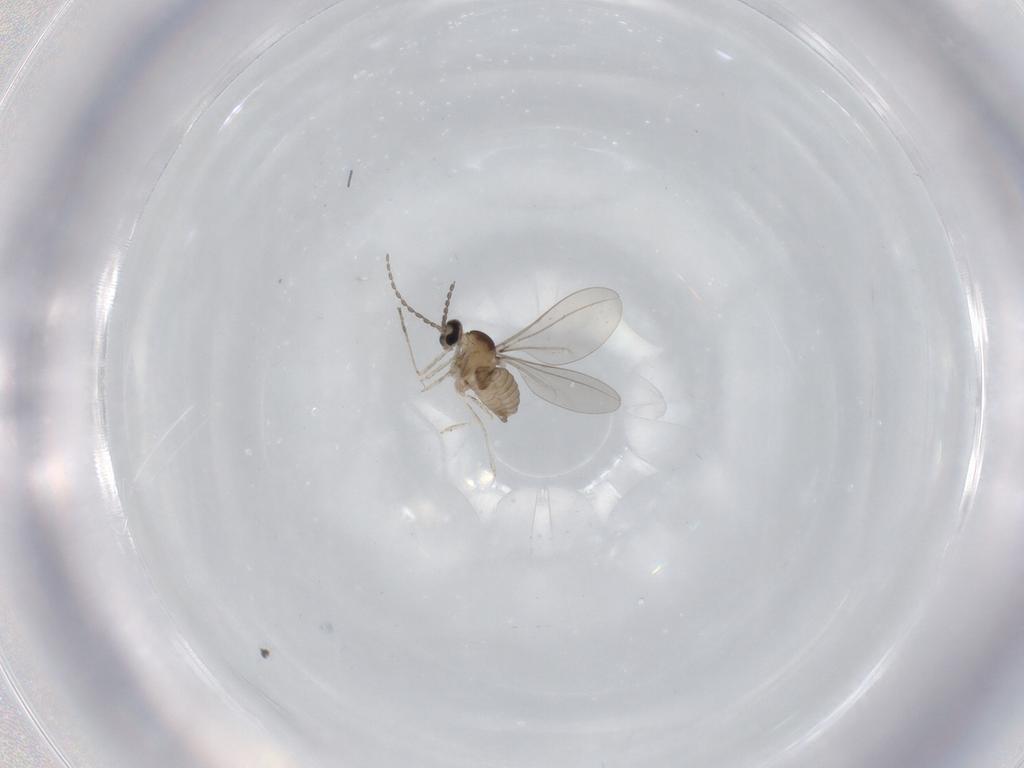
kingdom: Animalia
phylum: Arthropoda
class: Insecta
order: Diptera
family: Cecidomyiidae
